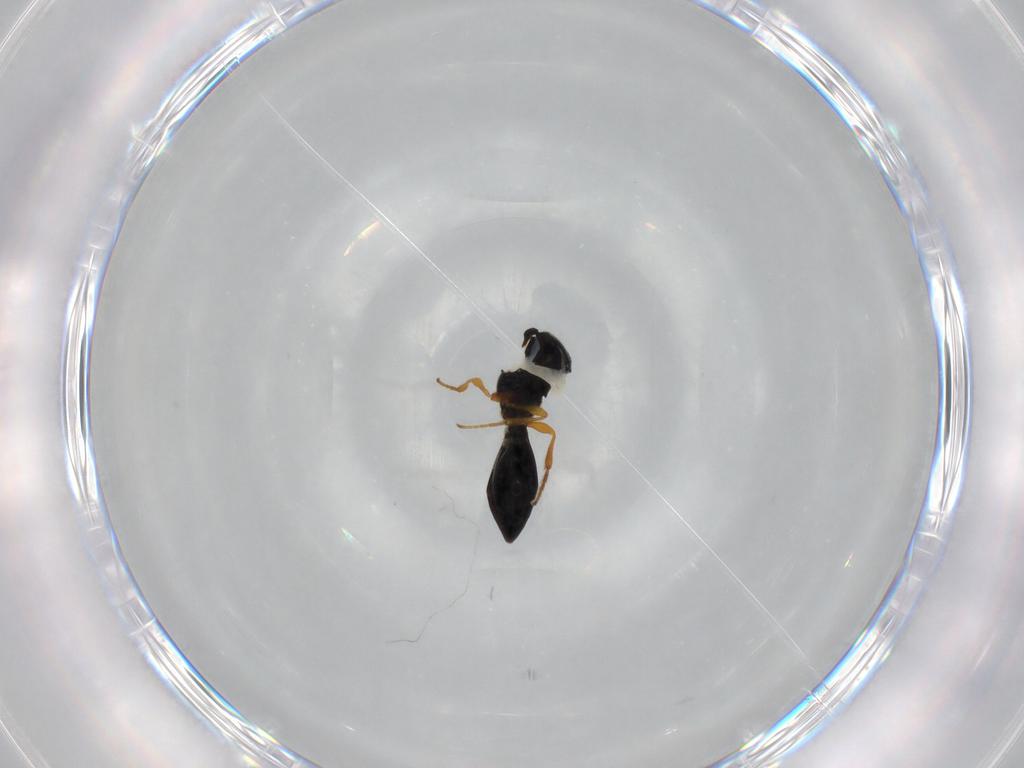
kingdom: Animalia
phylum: Arthropoda
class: Insecta
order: Hymenoptera
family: Platygastridae
